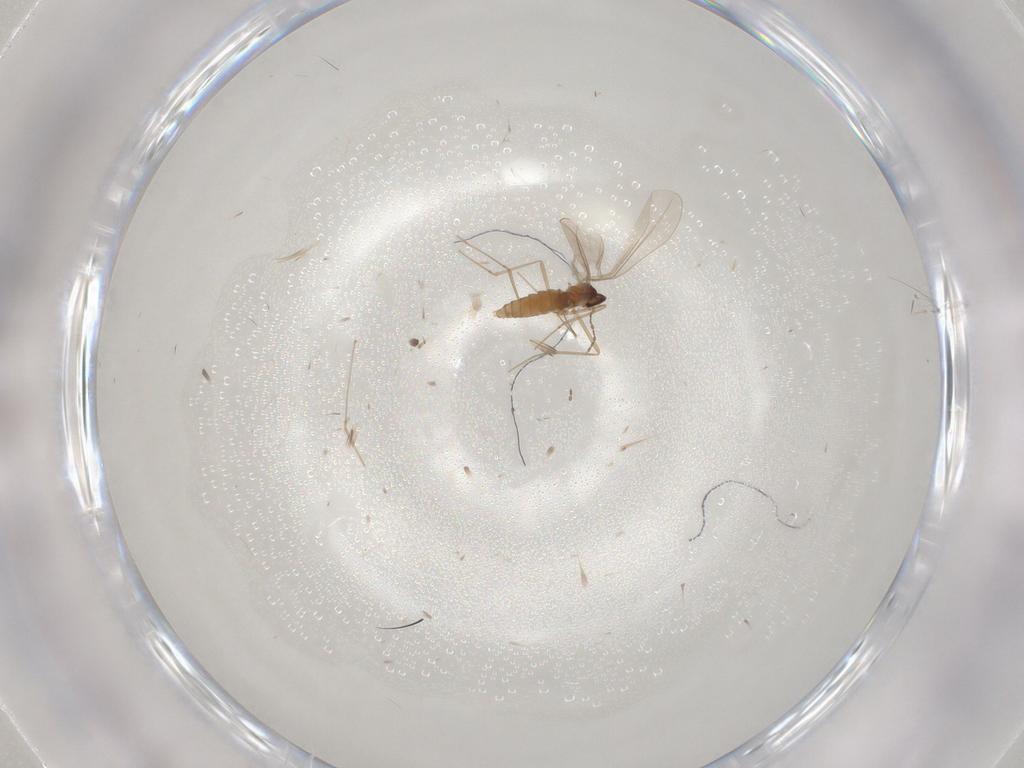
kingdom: Animalia
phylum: Arthropoda
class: Insecta
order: Diptera
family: Cecidomyiidae
